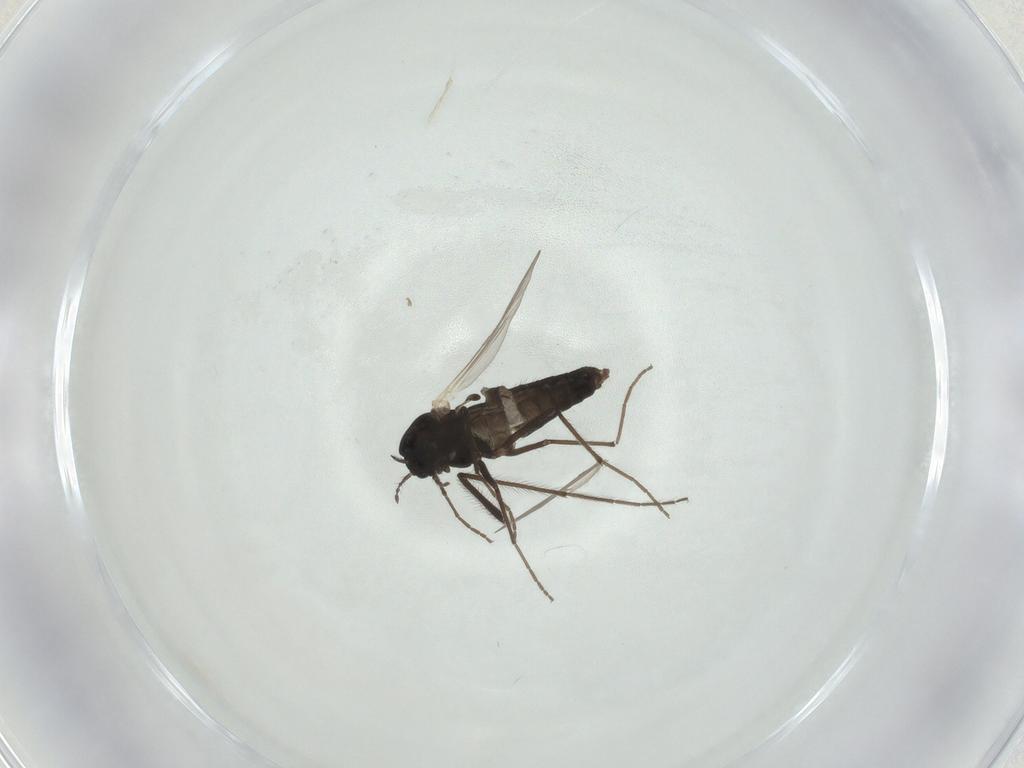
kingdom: Animalia
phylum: Arthropoda
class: Insecta
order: Diptera
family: Chironomidae
